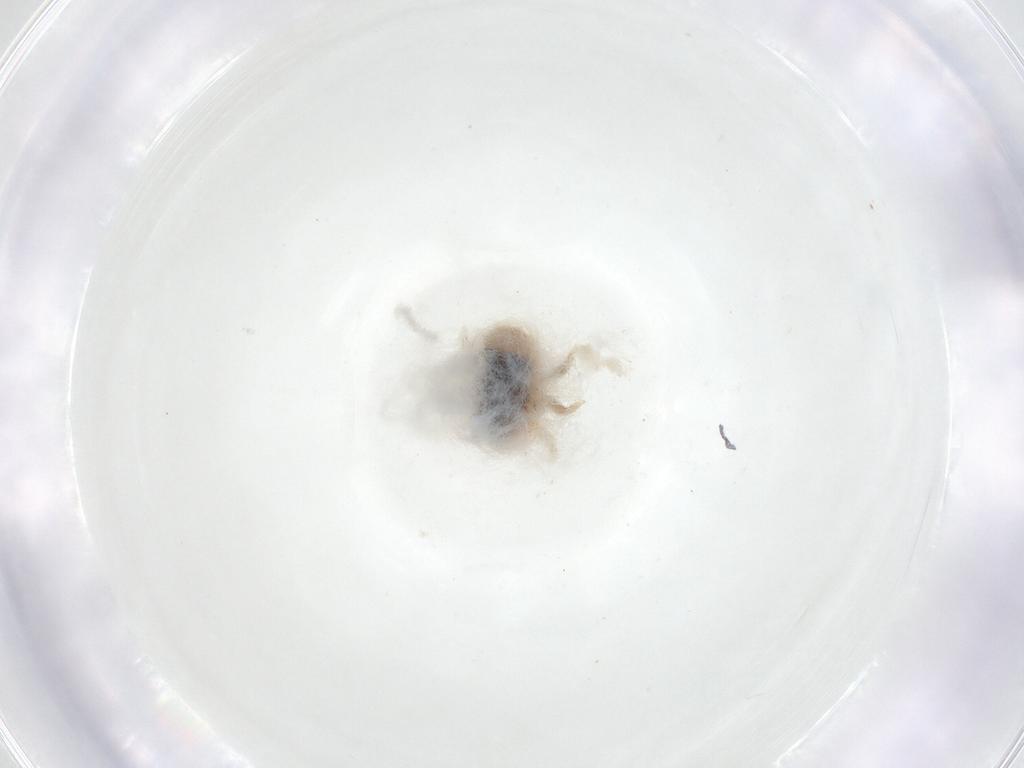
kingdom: Animalia
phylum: Arthropoda
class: Insecta
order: Hemiptera
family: Triozidae
